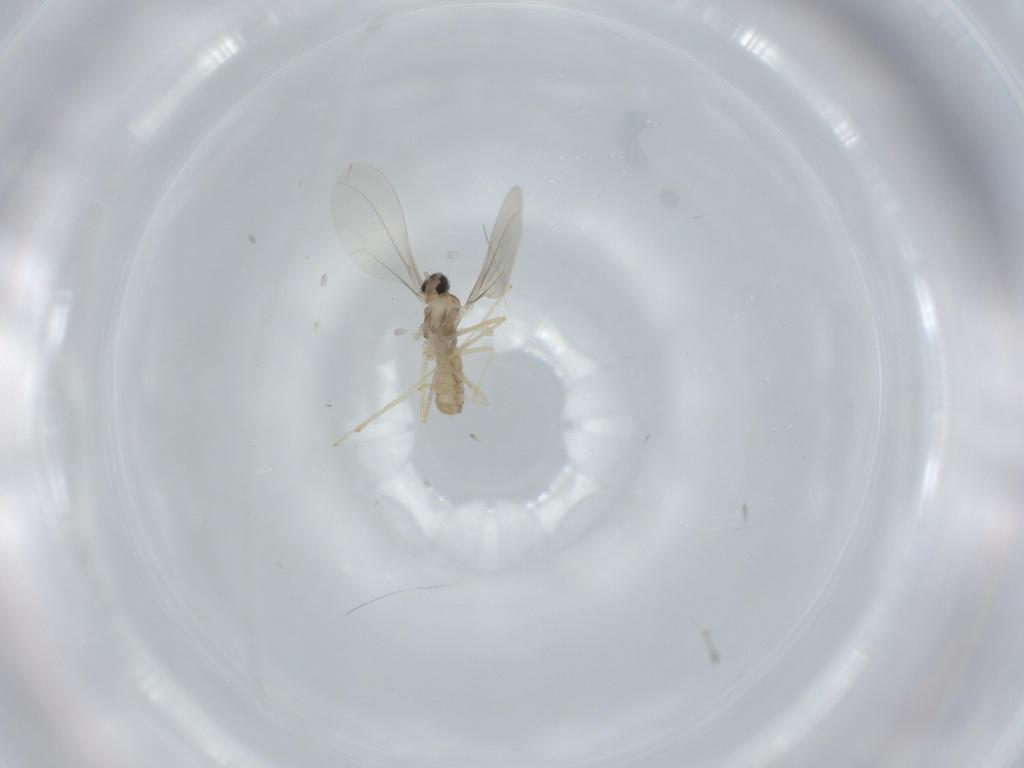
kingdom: Animalia
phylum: Arthropoda
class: Insecta
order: Diptera
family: Cecidomyiidae
